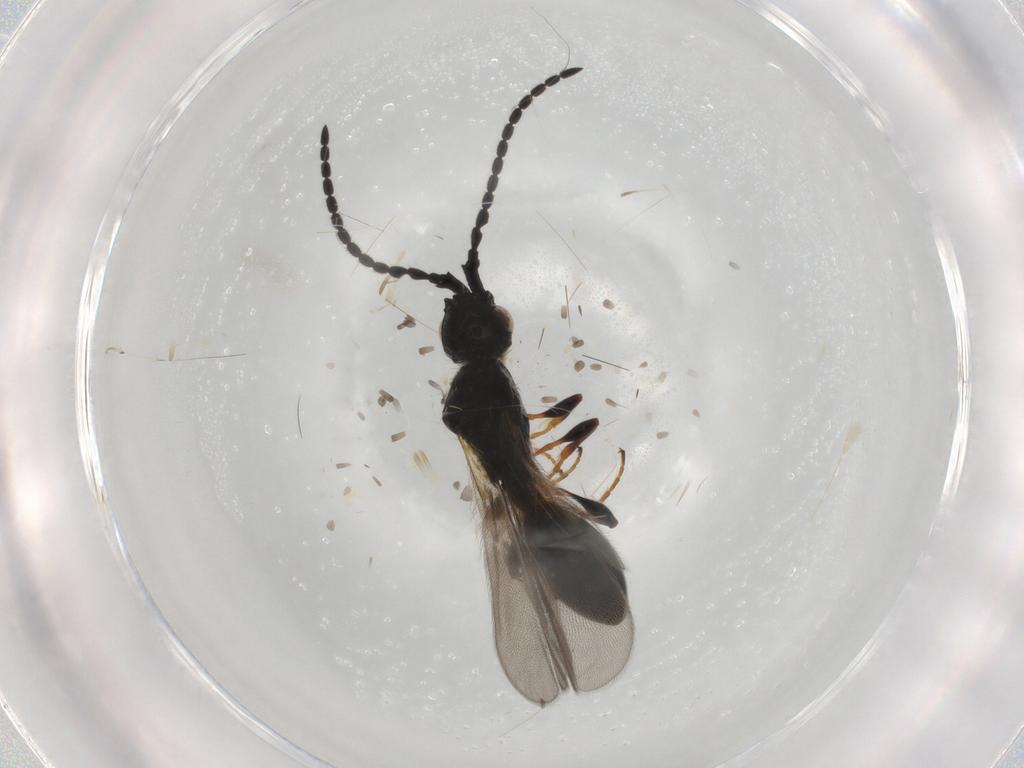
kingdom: Animalia
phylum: Arthropoda
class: Insecta
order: Hymenoptera
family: Diapriidae
